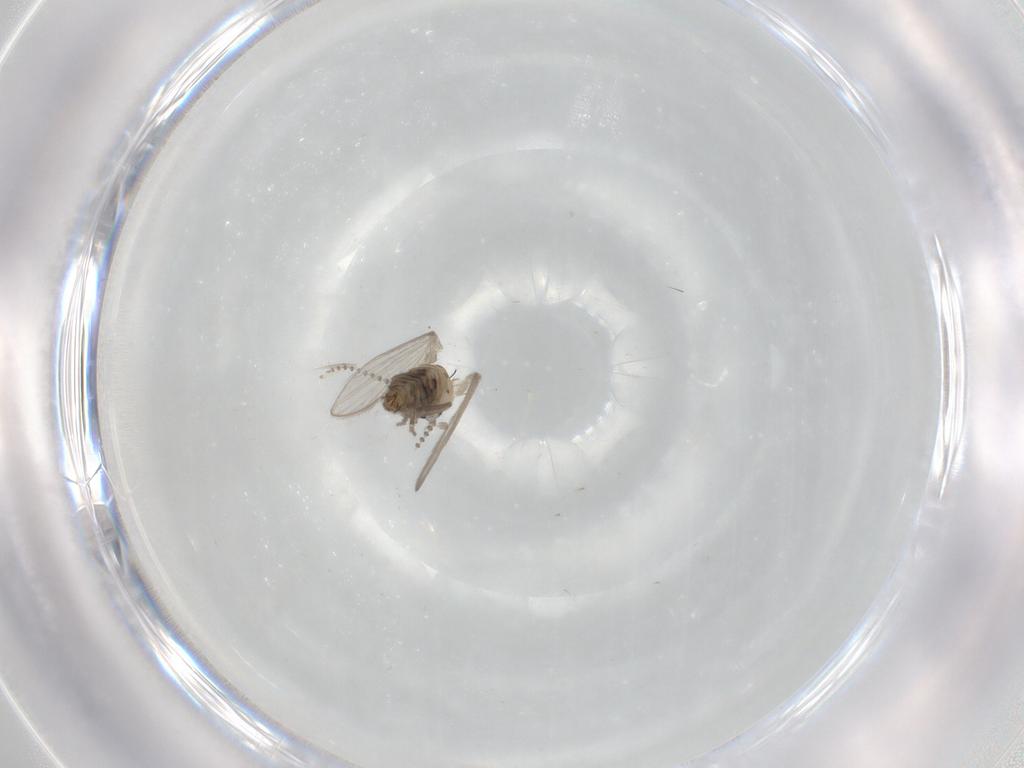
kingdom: Animalia
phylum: Arthropoda
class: Insecta
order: Diptera
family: Psychodidae
